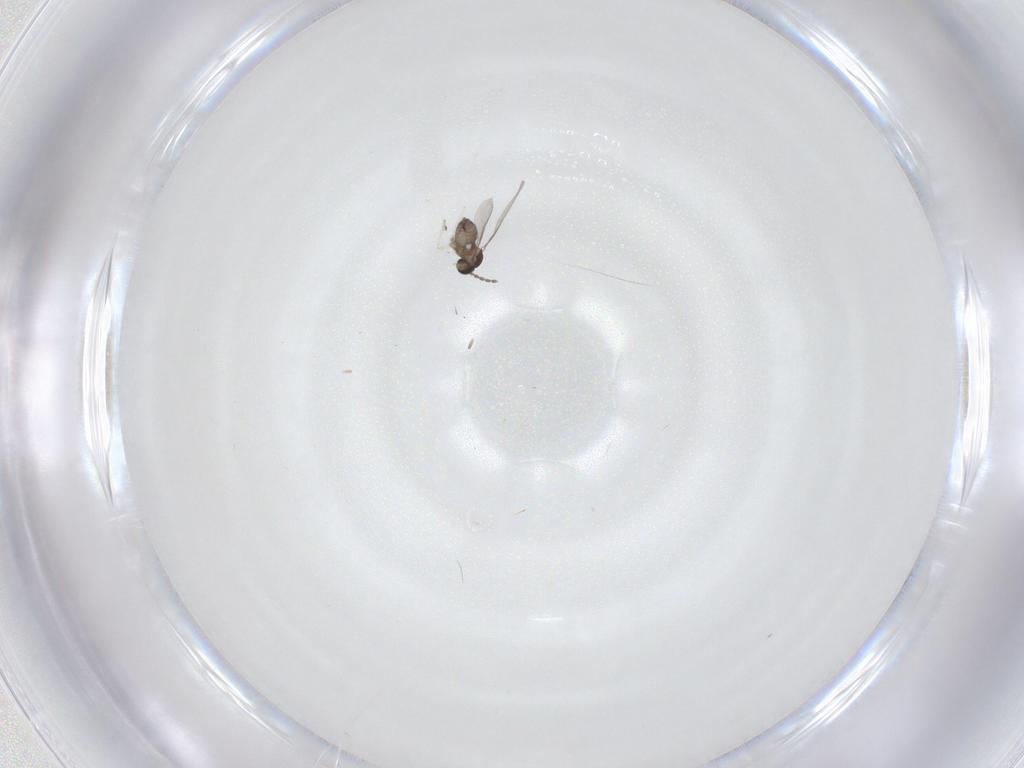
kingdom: Animalia
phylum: Arthropoda
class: Insecta
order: Diptera
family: Cecidomyiidae
